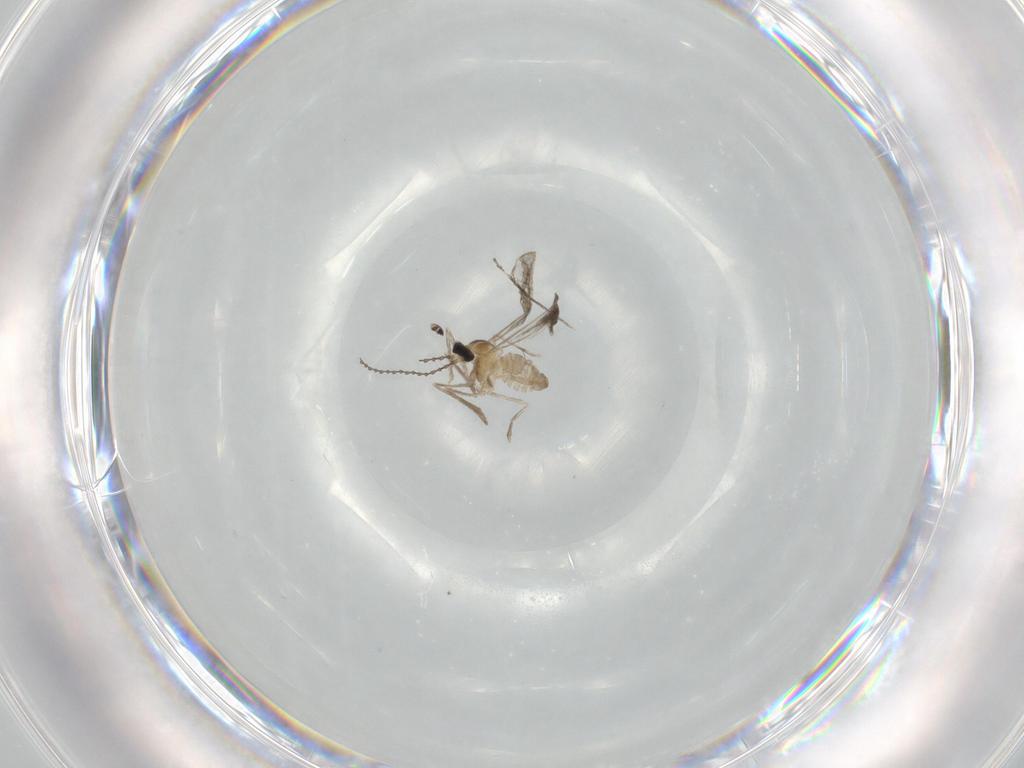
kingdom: Animalia
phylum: Arthropoda
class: Insecta
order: Diptera
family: Cecidomyiidae
